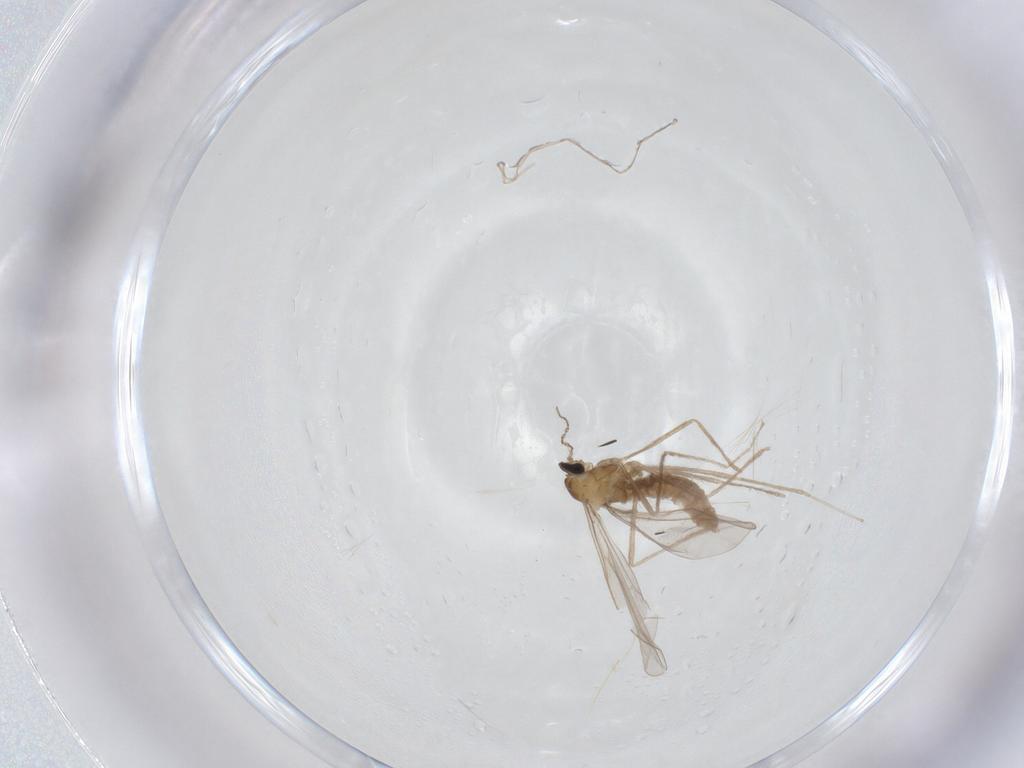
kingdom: Animalia
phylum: Arthropoda
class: Insecta
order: Diptera
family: Cecidomyiidae
